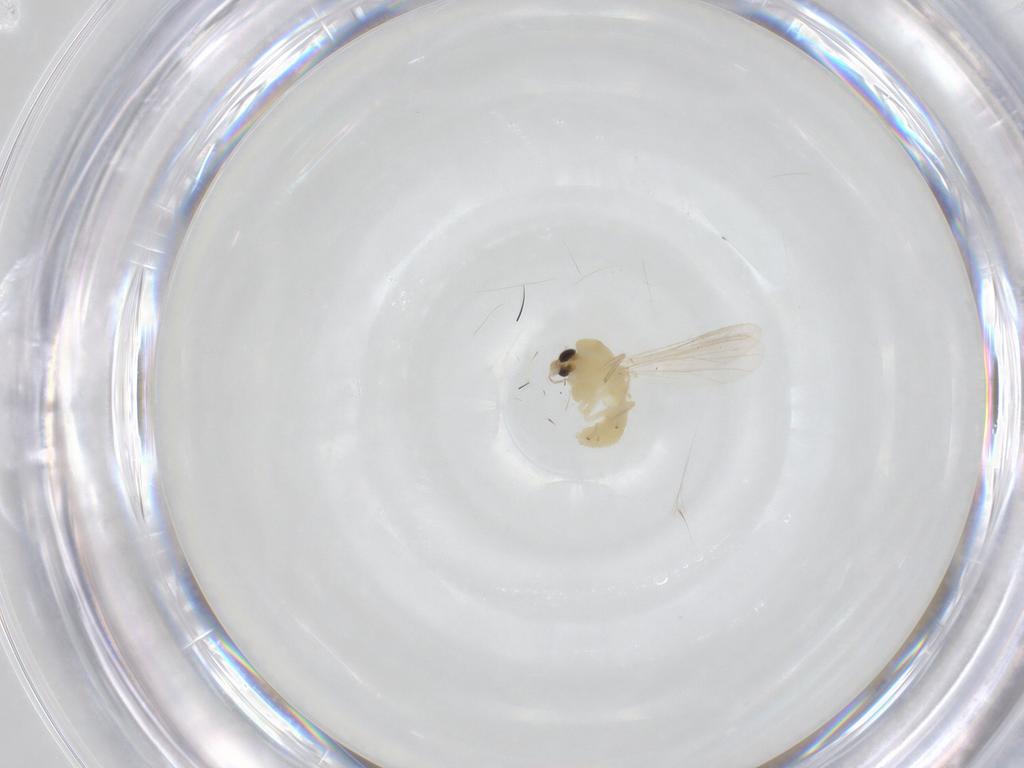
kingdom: Animalia
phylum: Arthropoda
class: Insecta
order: Diptera
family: Chironomidae
